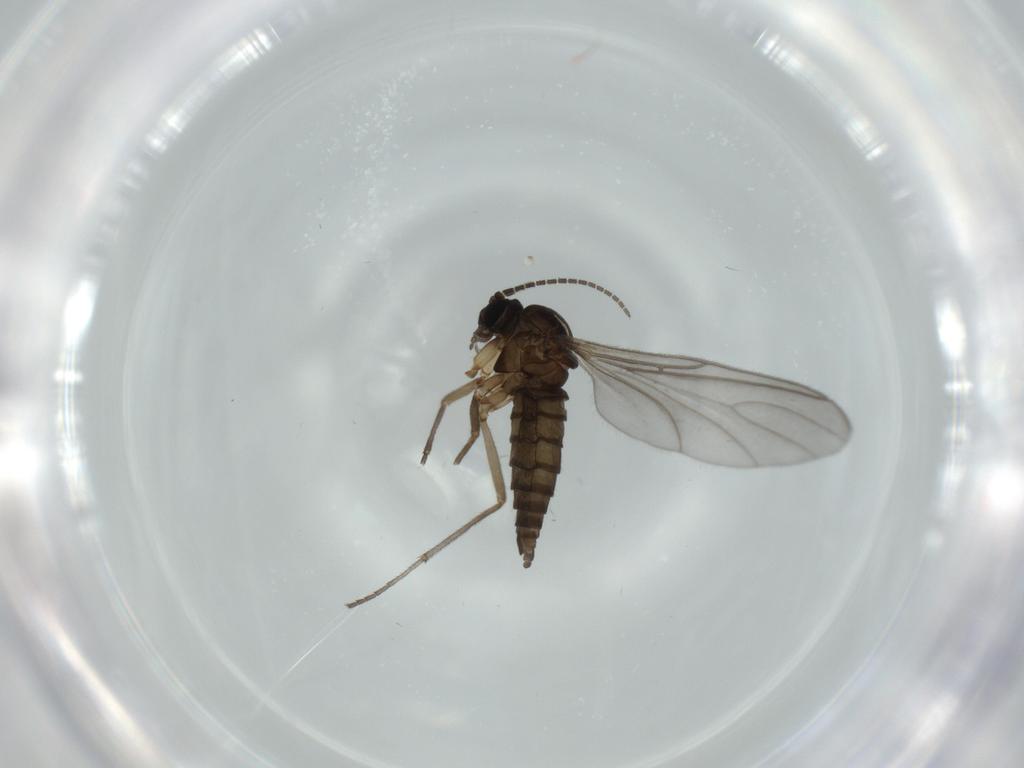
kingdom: Animalia
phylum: Arthropoda
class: Insecta
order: Diptera
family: Sciaridae
